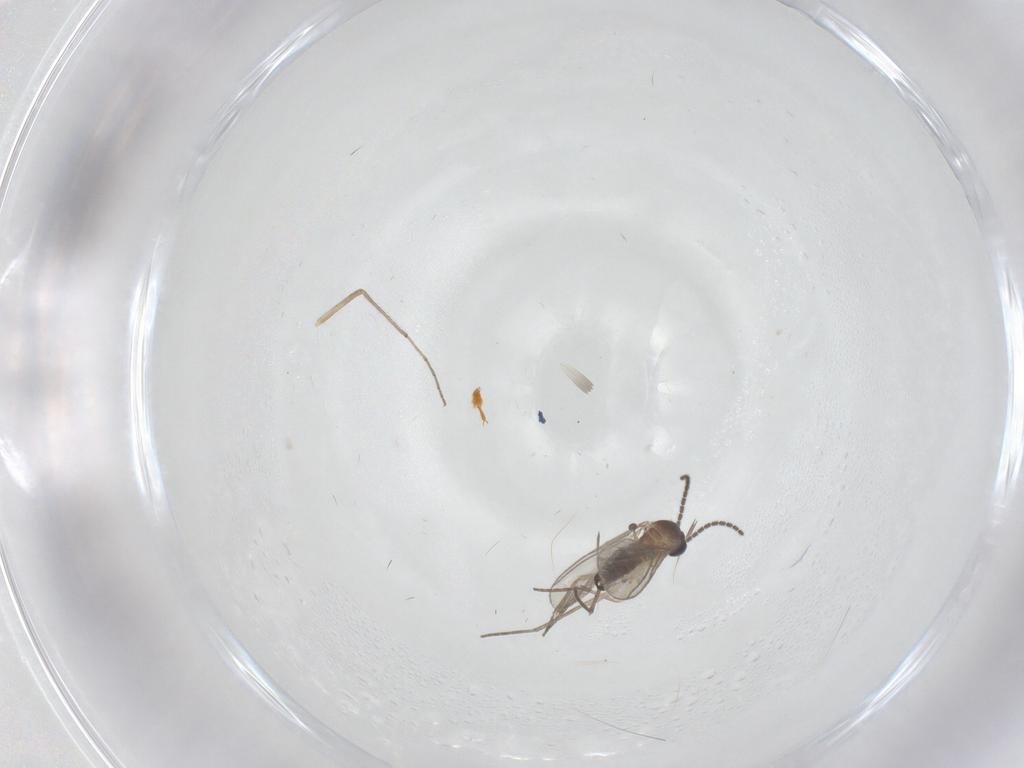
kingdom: Animalia
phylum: Arthropoda
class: Insecta
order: Diptera
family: Sciaridae
